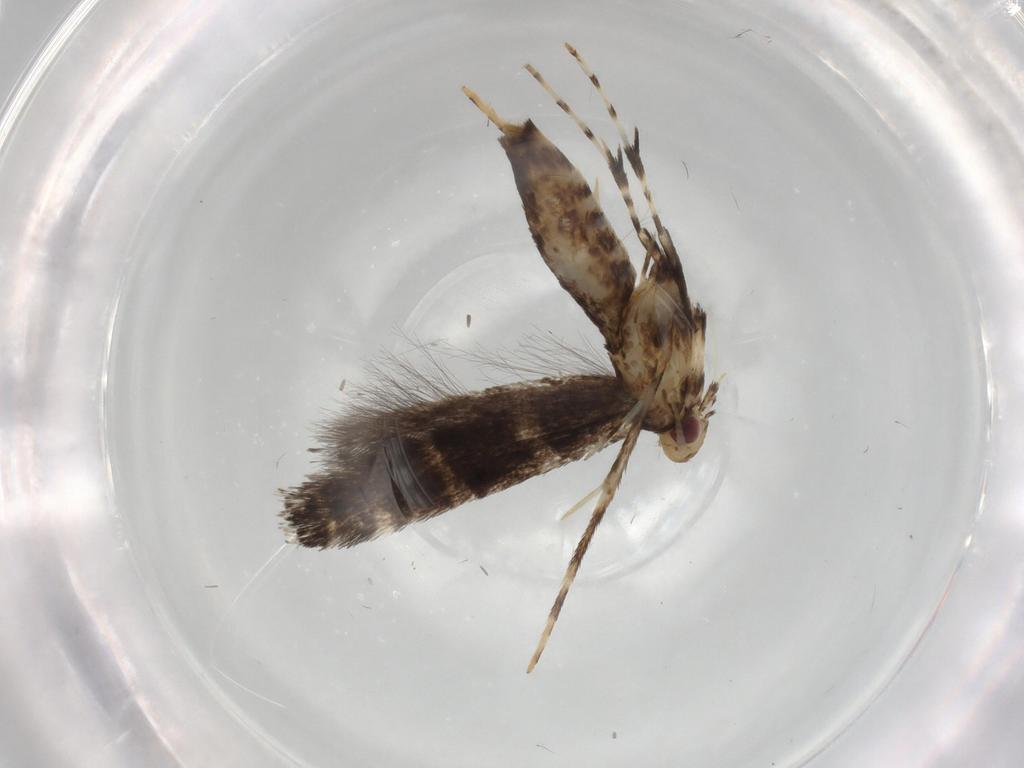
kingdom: Animalia
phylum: Arthropoda
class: Insecta
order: Lepidoptera
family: Gracillariidae
